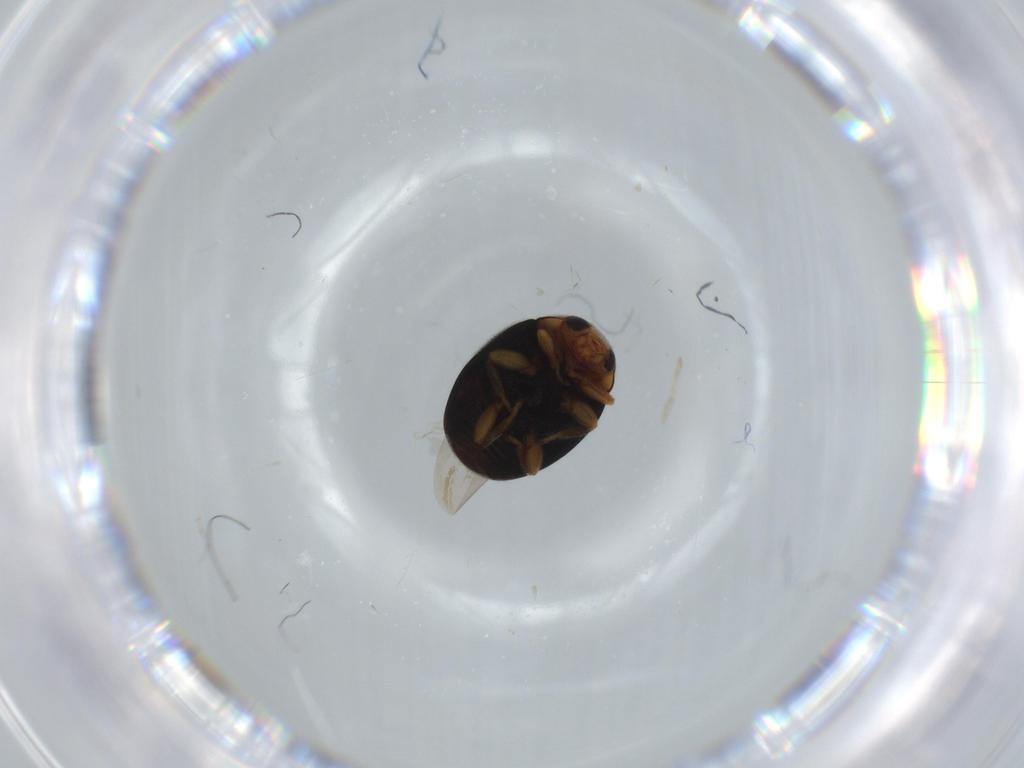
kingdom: Animalia
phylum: Arthropoda
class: Insecta
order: Coleoptera
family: Coccinellidae
